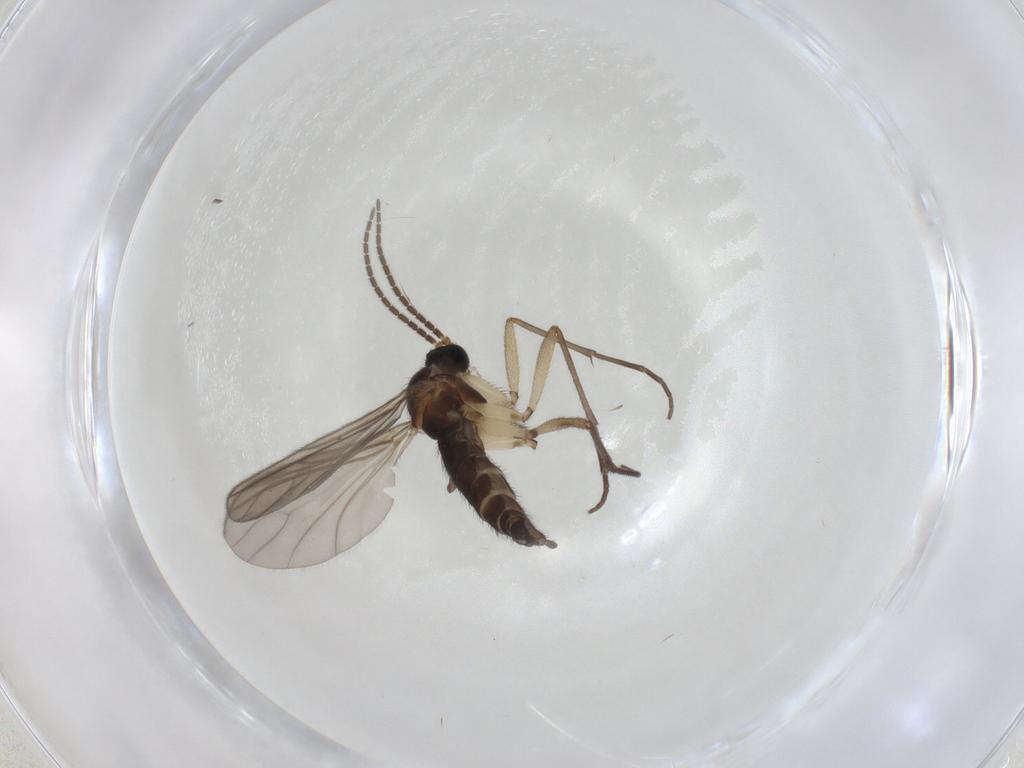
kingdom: Animalia
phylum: Arthropoda
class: Insecta
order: Diptera
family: Sciaridae
